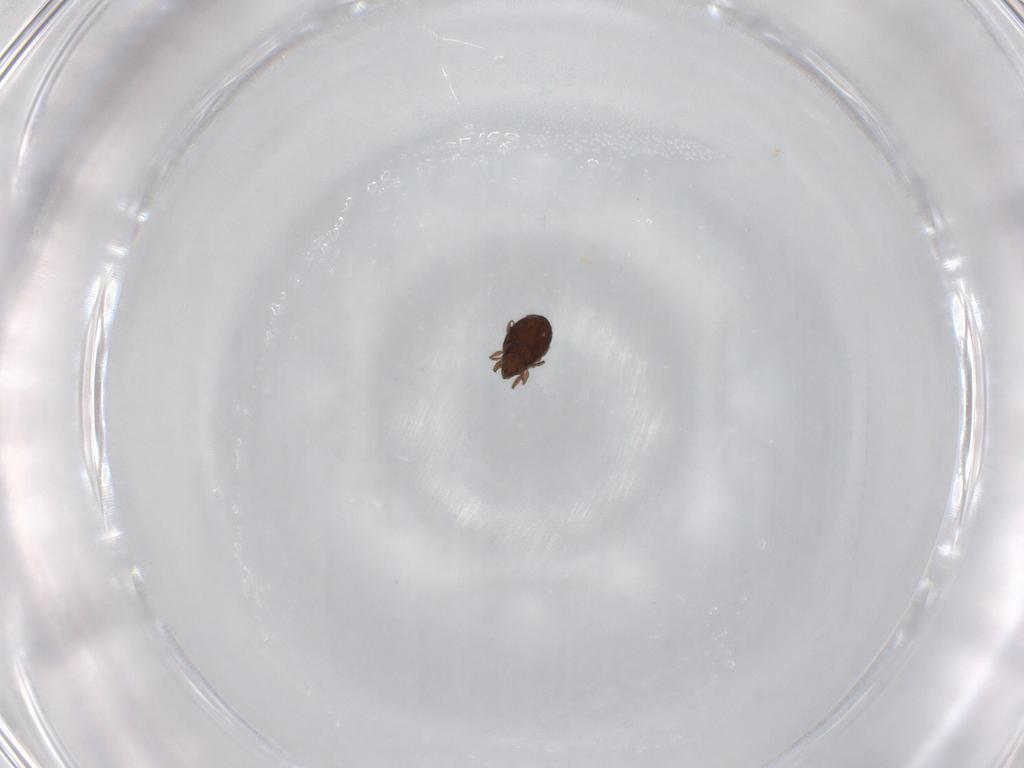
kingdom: Animalia
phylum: Arthropoda
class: Arachnida
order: Sarcoptiformes
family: Oribatulidae
